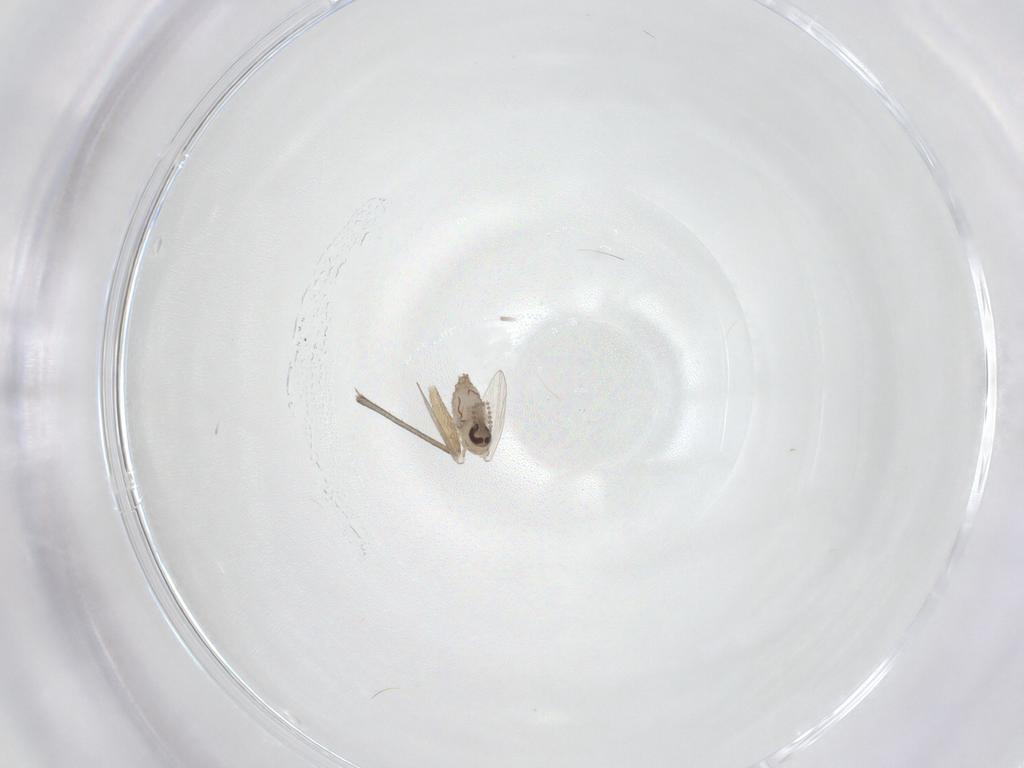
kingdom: Animalia
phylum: Arthropoda
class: Insecta
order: Diptera
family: Psychodidae
